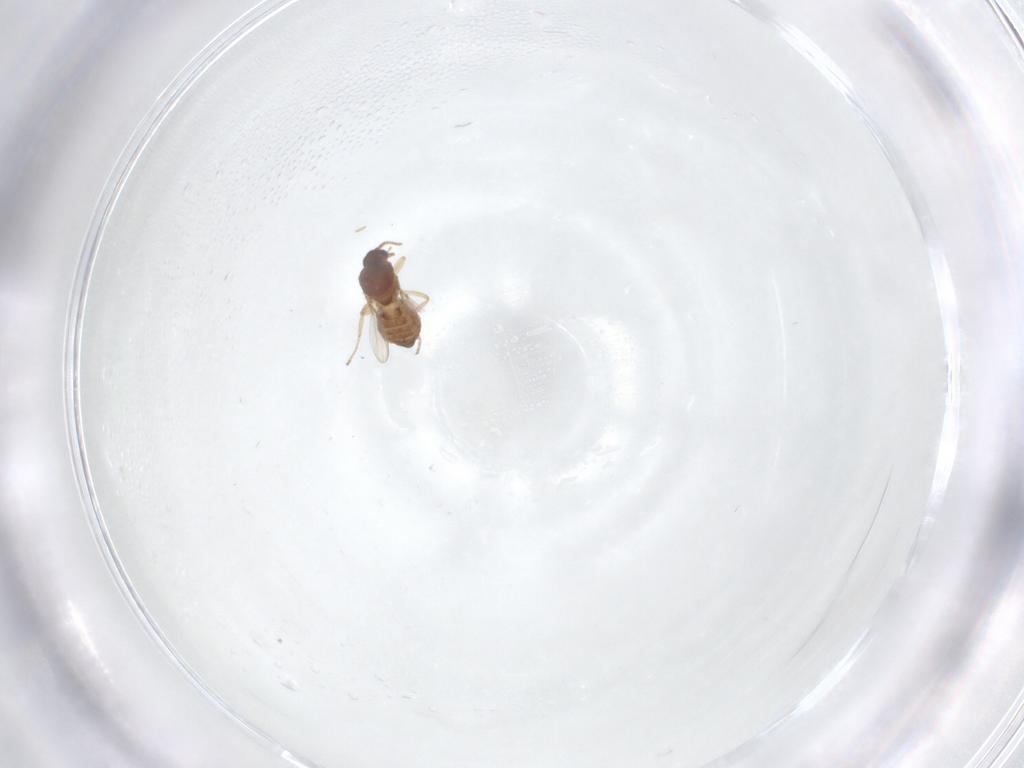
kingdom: Animalia
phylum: Arthropoda
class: Insecta
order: Diptera
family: Ceratopogonidae
